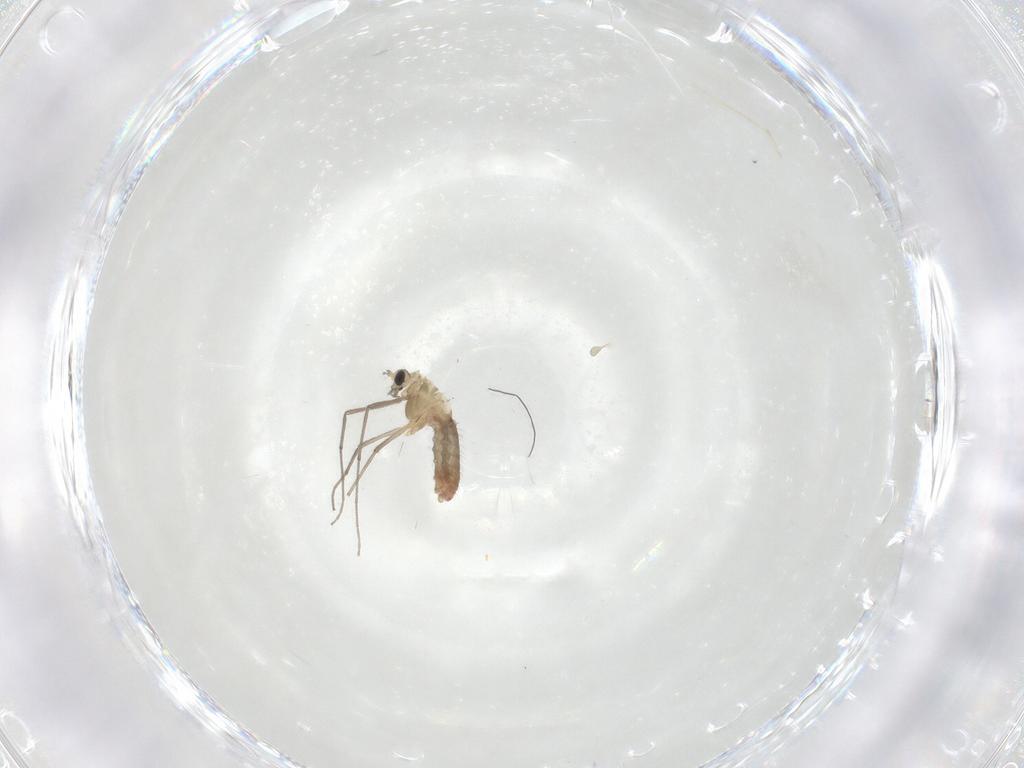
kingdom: Animalia
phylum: Arthropoda
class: Insecta
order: Diptera
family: Chironomidae
